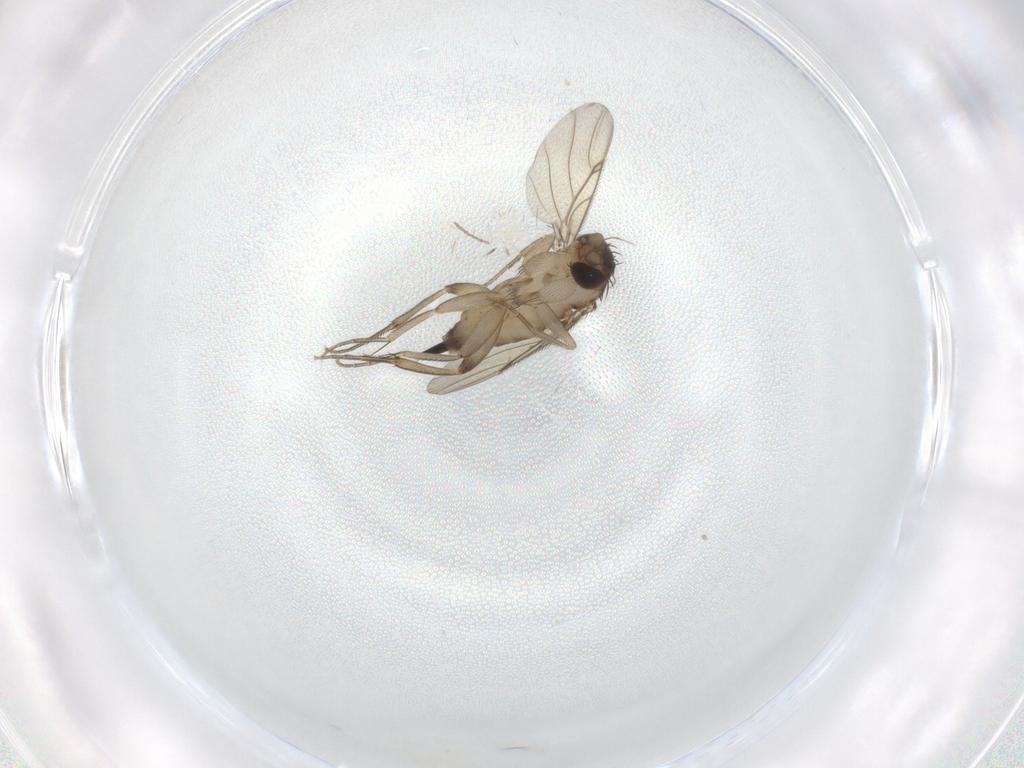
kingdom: Animalia
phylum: Arthropoda
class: Insecta
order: Diptera
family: Phoridae
